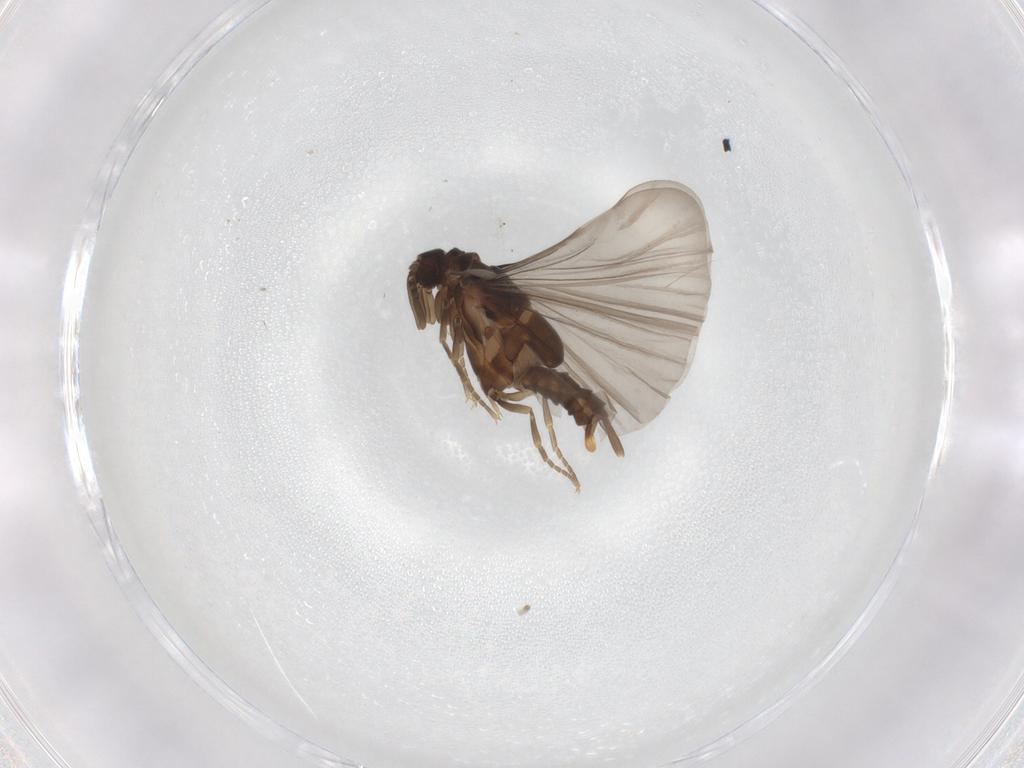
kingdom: Animalia
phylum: Arthropoda
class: Insecta
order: Strepsiptera
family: Mengenillidae
